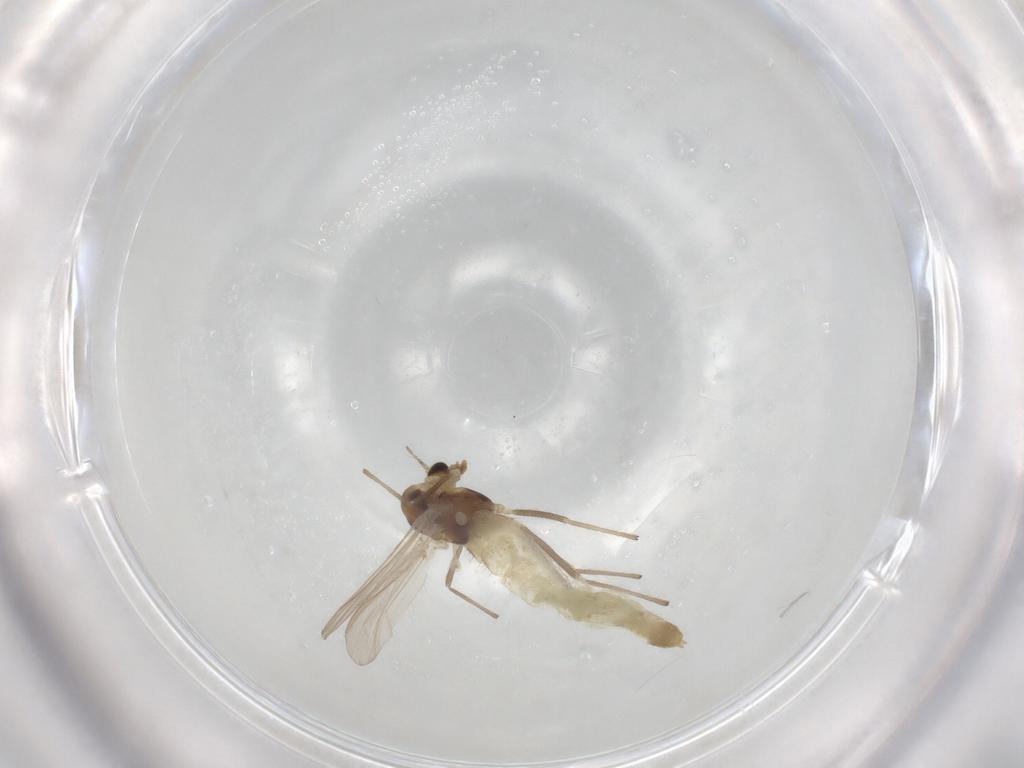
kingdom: Animalia
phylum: Arthropoda
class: Insecta
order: Diptera
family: Chironomidae
